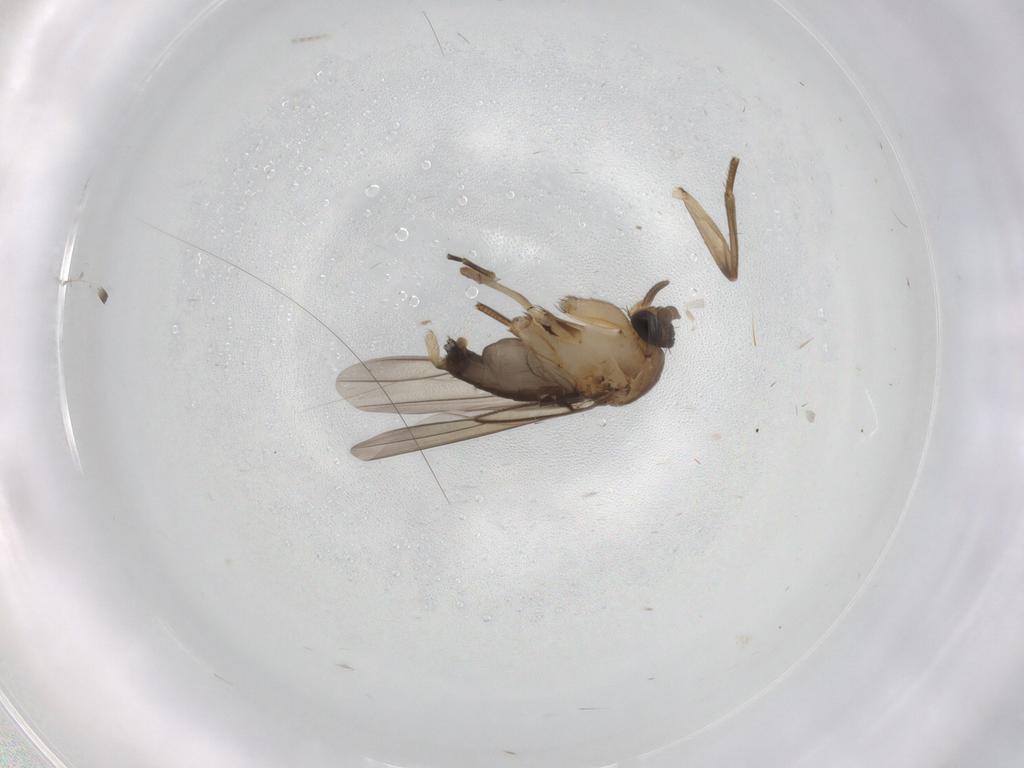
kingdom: Animalia
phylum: Arthropoda
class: Insecta
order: Diptera
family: Phoridae
